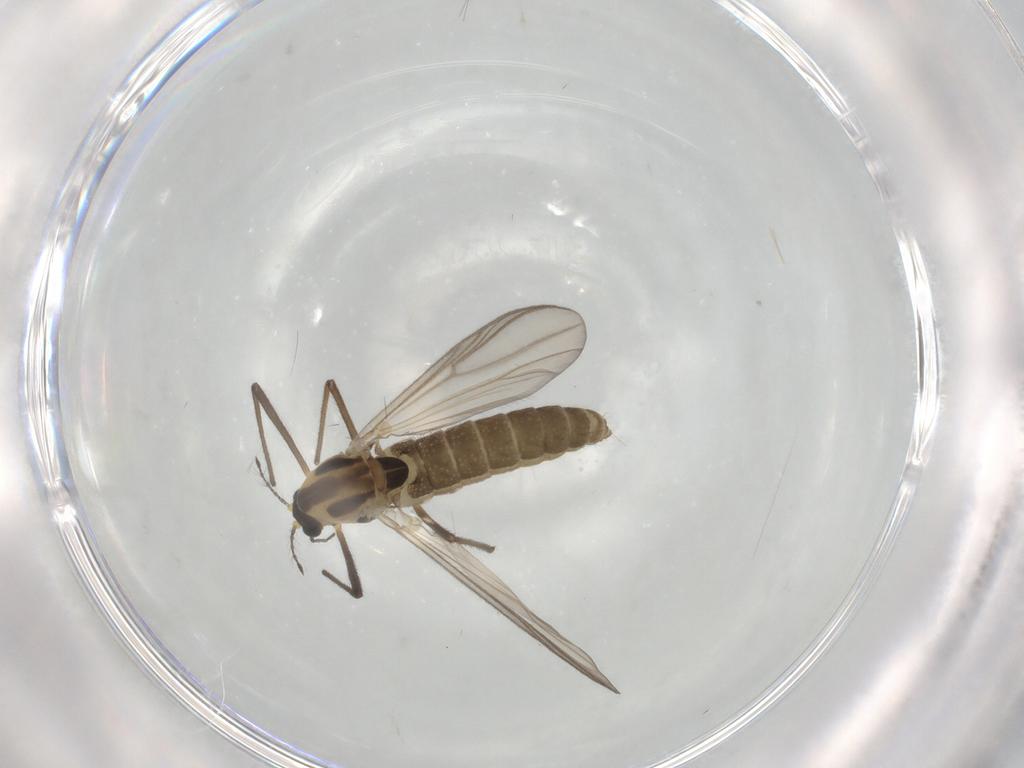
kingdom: Animalia
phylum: Arthropoda
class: Insecta
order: Diptera
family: Chironomidae
